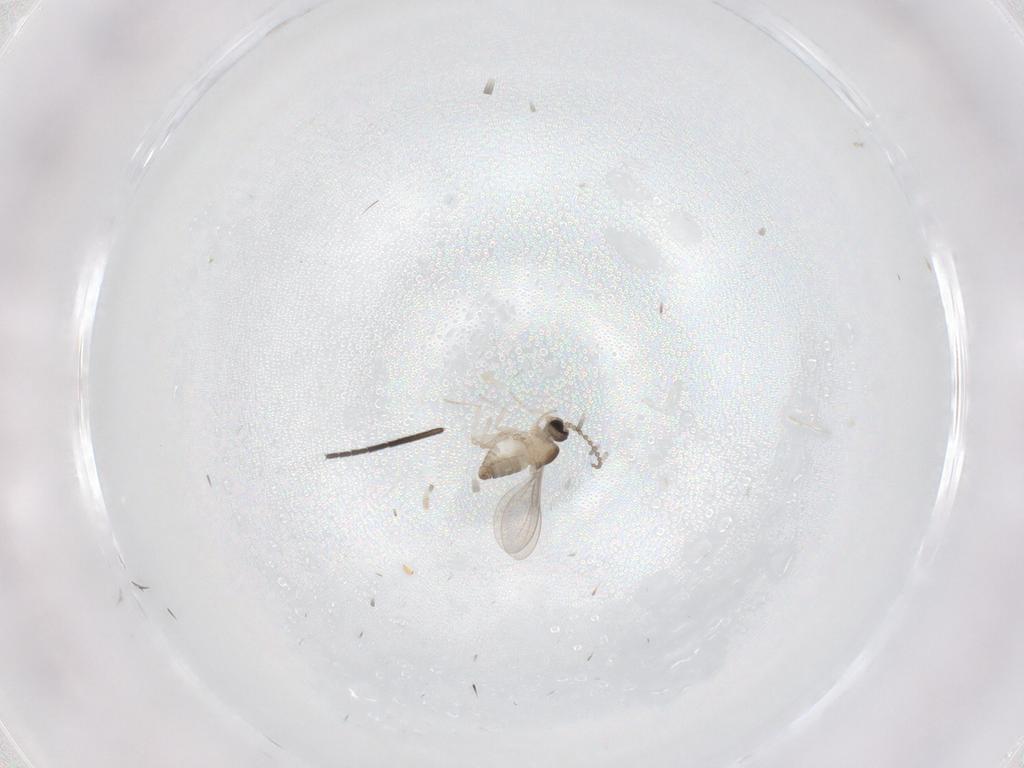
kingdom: Animalia
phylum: Arthropoda
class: Insecta
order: Diptera
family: Cecidomyiidae
